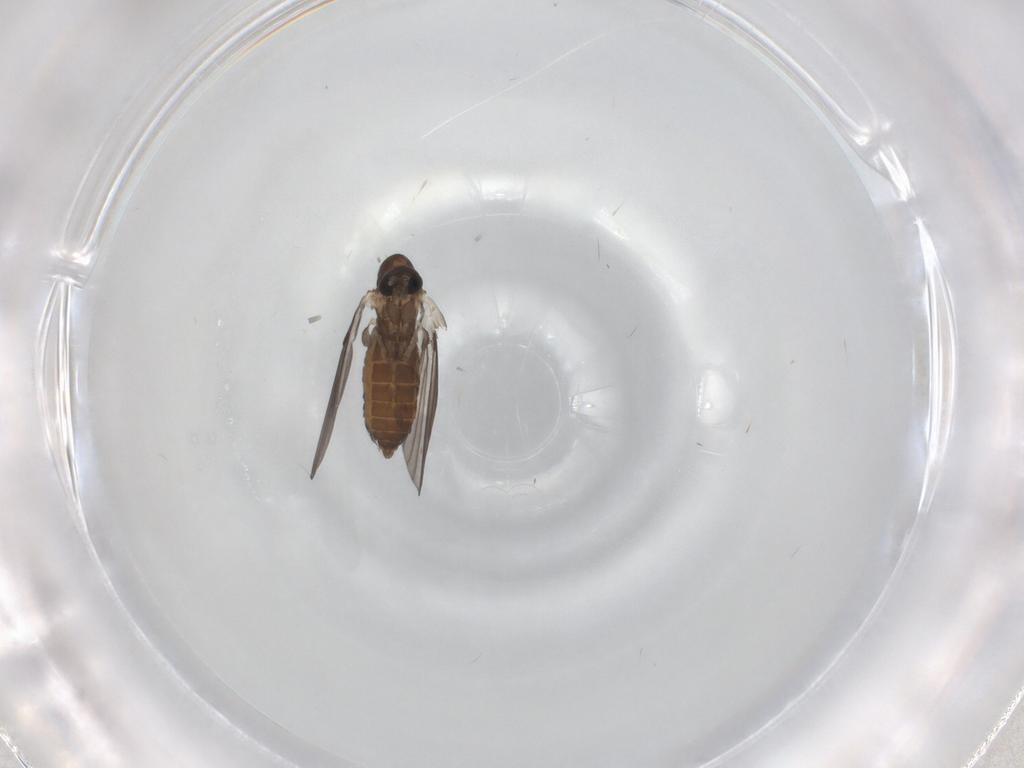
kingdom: Animalia
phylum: Arthropoda
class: Insecta
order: Diptera
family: Psychodidae
